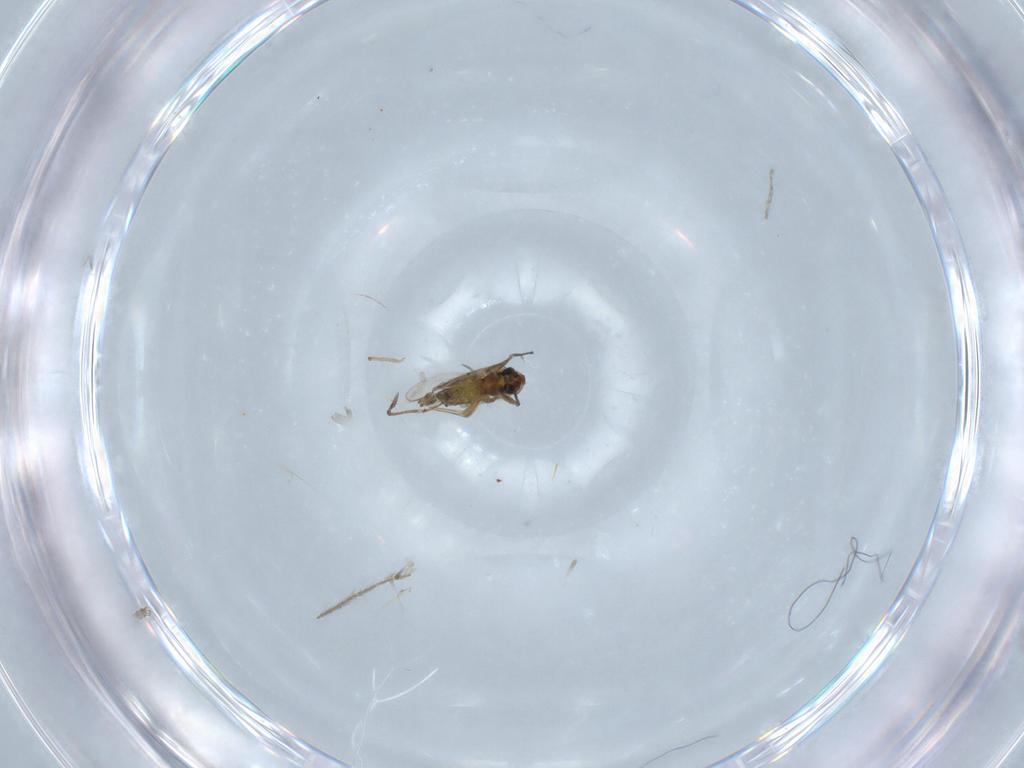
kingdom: Animalia
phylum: Arthropoda
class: Insecta
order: Diptera
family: Chironomidae
